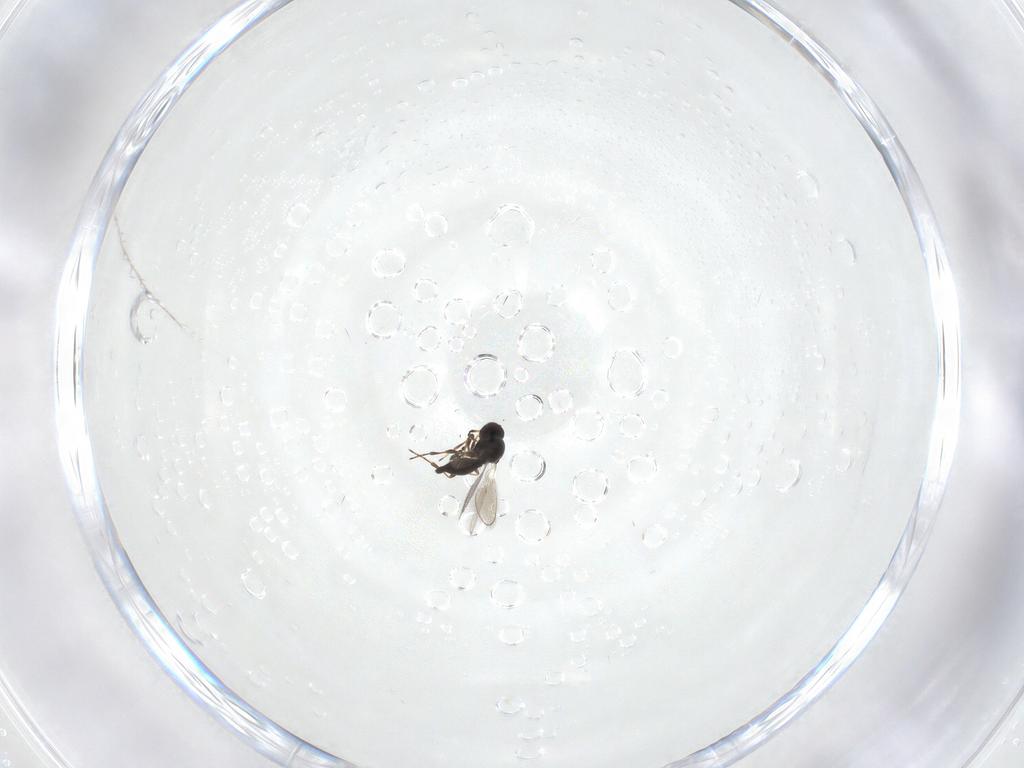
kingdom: Animalia
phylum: Arthropoda
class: Insecta
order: Hymenoptera
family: Platygastridae
